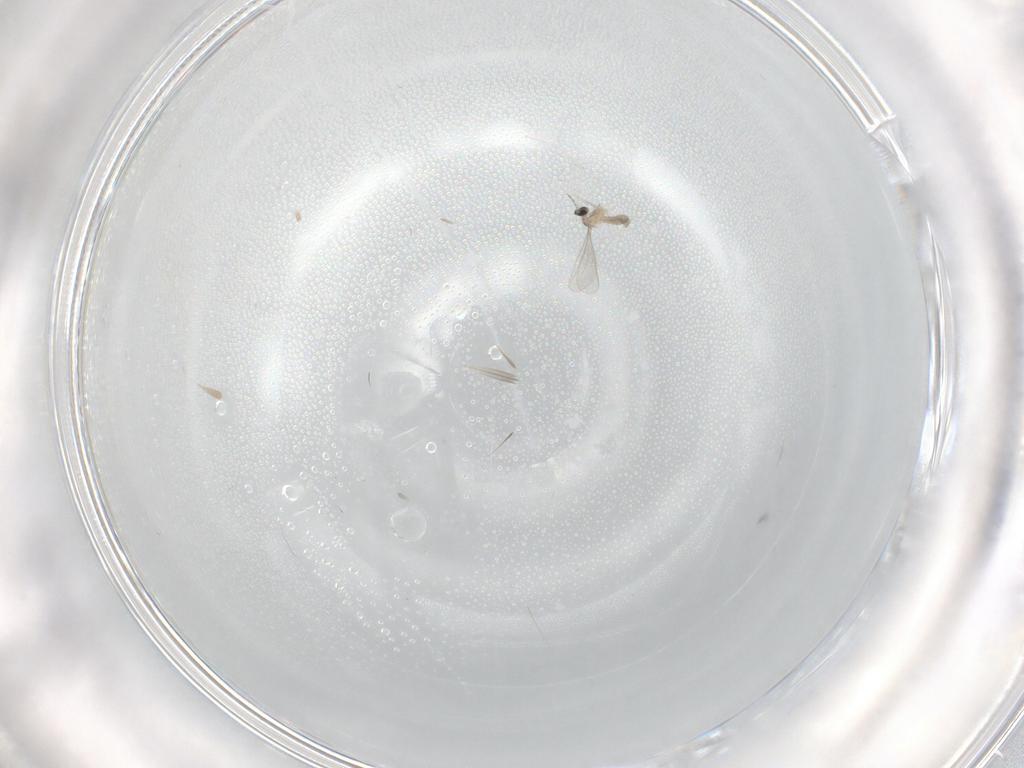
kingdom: Animalia
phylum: Arthropoda
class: Insecta
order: Diptera
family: Cecidomyiidae
